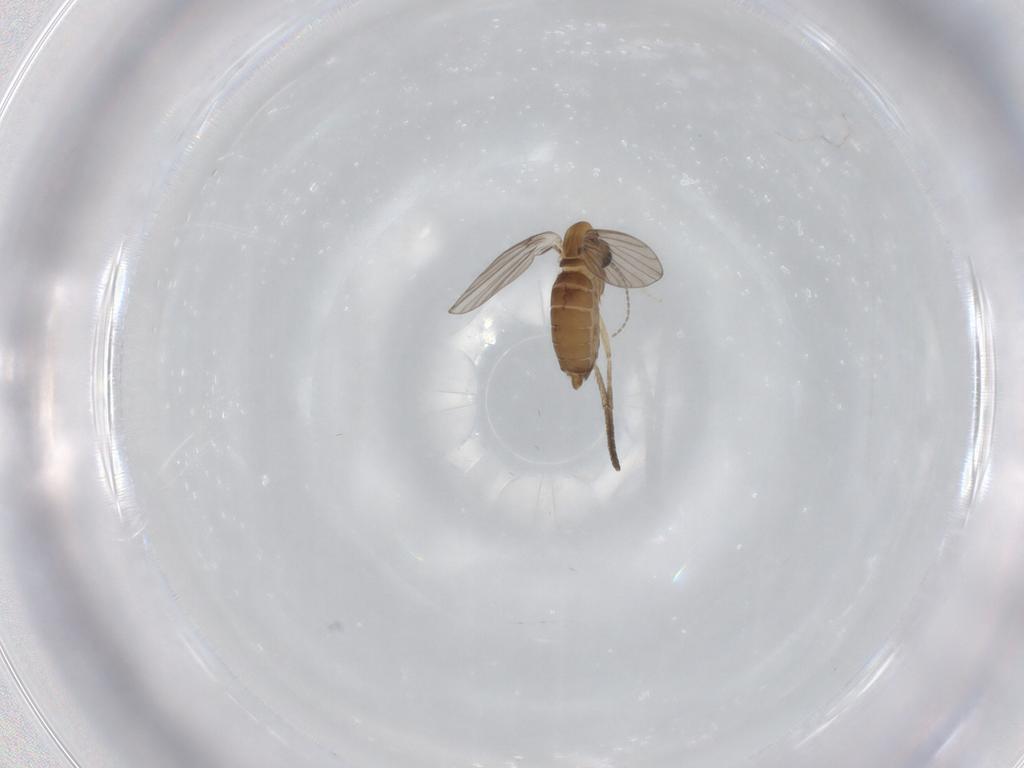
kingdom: Animalia
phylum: Arthropoda
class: Insecta
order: Diptera
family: Psychodidae
